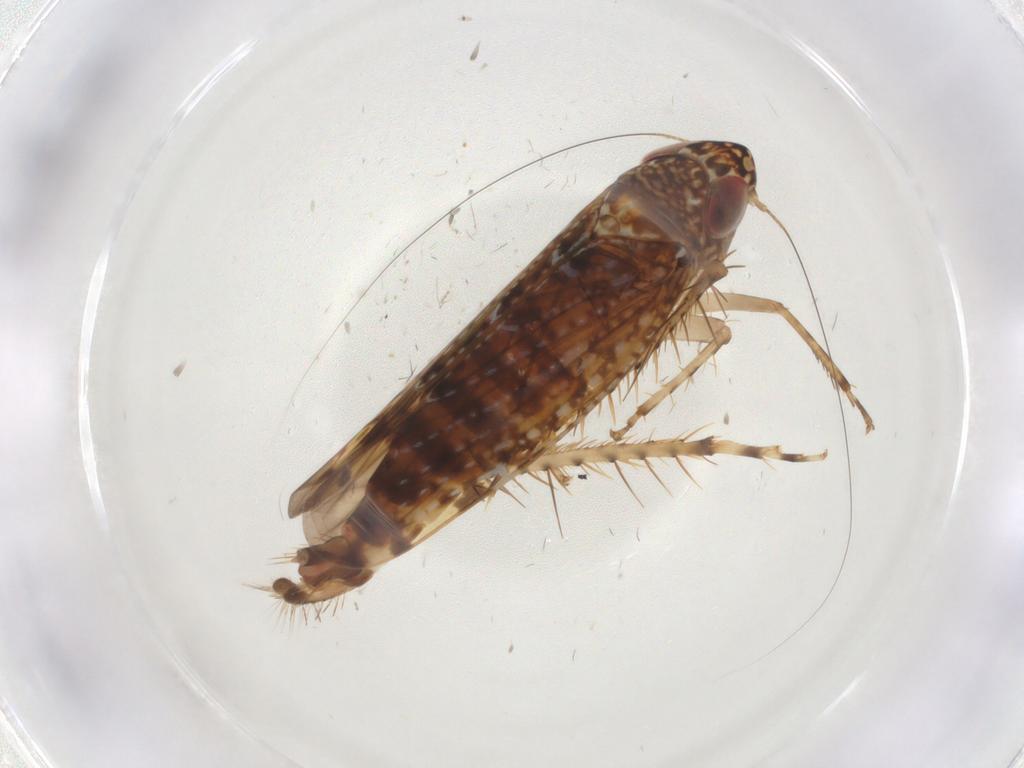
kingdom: Animalia
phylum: Arthropoda
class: Insecta
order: Hemiptera
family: Cicadellidae
